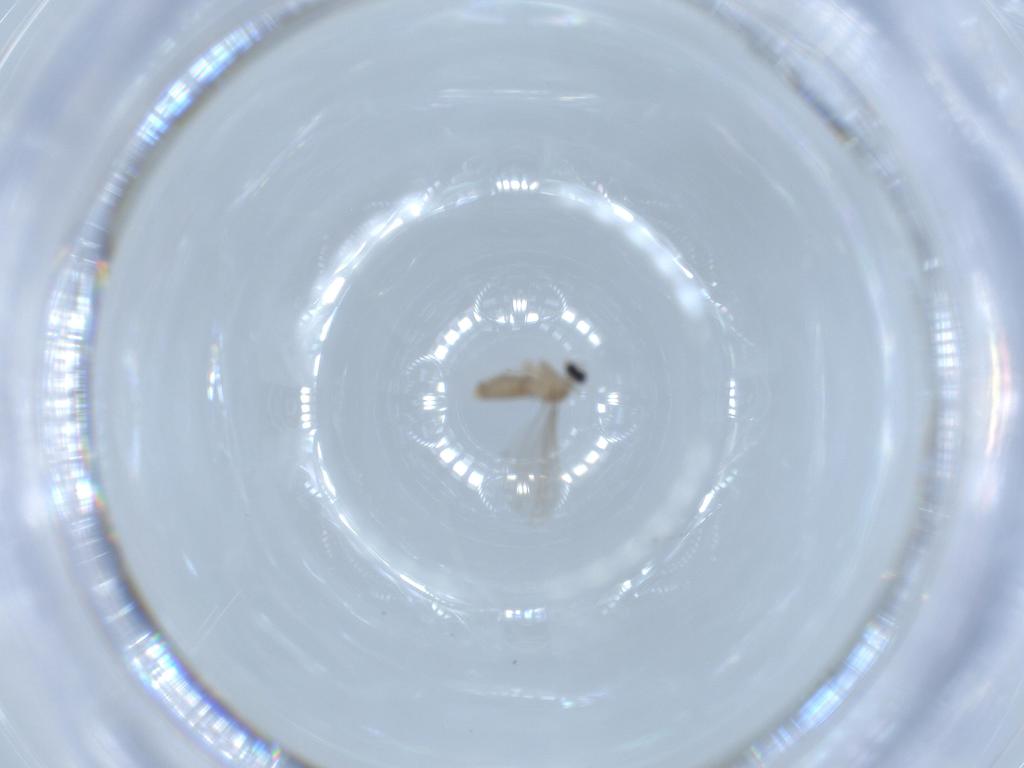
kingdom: Animalia
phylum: Arthropoda
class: Insecta
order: Diptera
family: Cecidomyiidae
